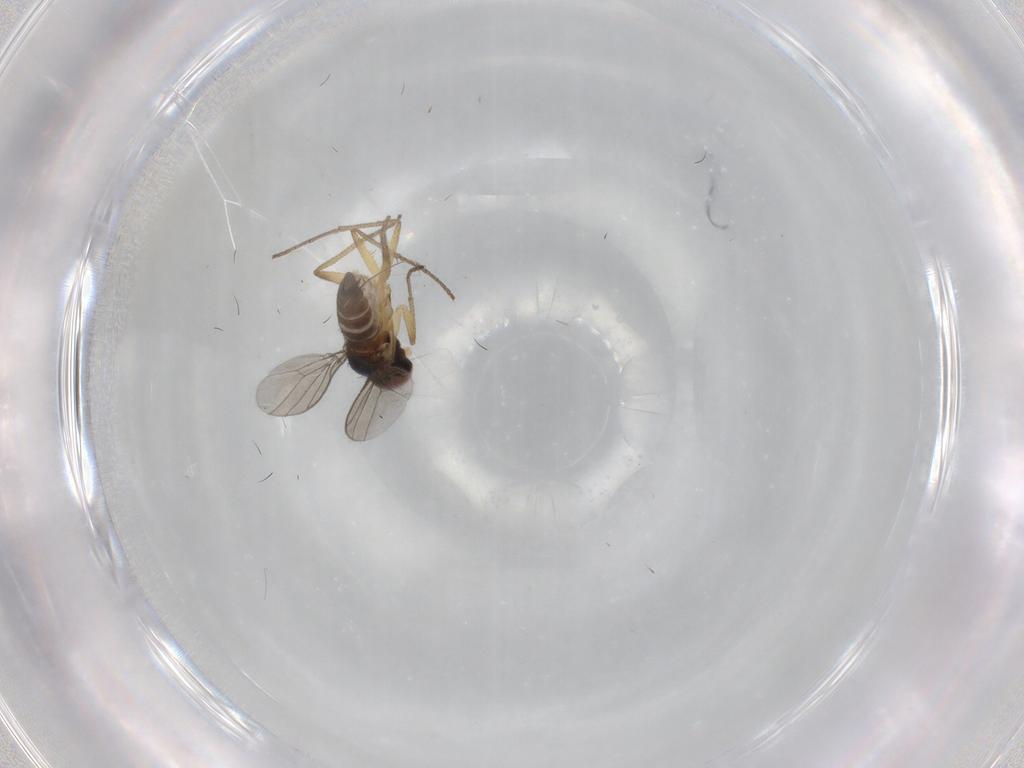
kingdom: Animalia
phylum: Arthropoda
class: Insecta
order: Diptera
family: Dolichopodidae
